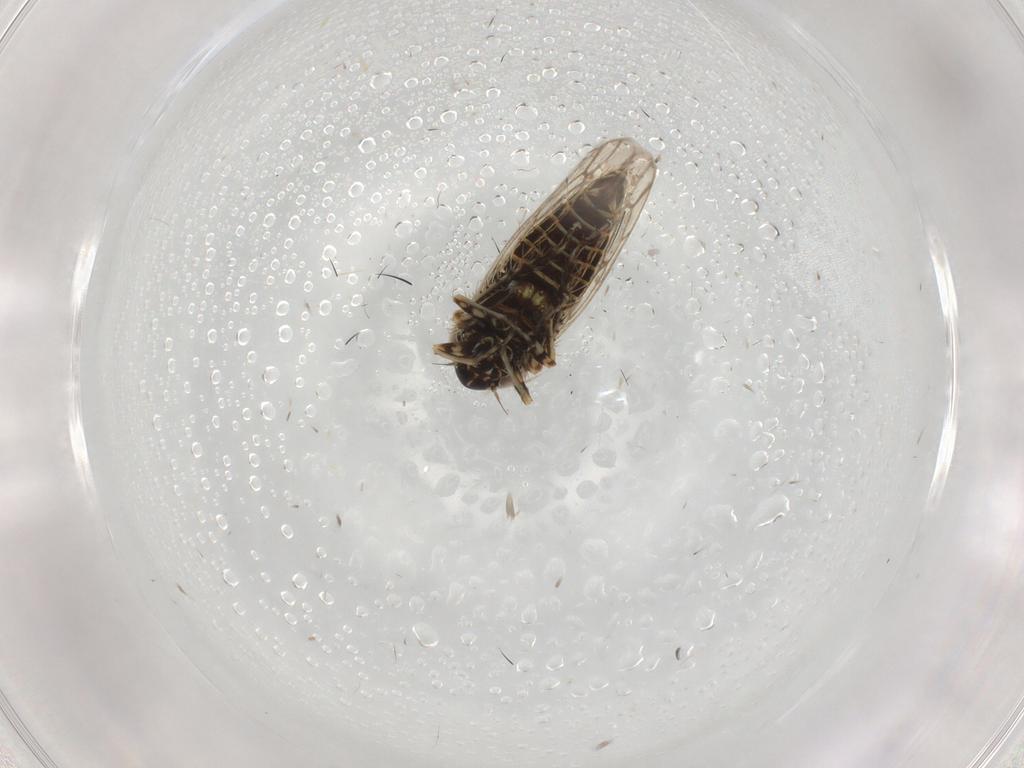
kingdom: Animalia
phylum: Arthropoda
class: Insecta
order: Hemiptera
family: Cicadellidae
